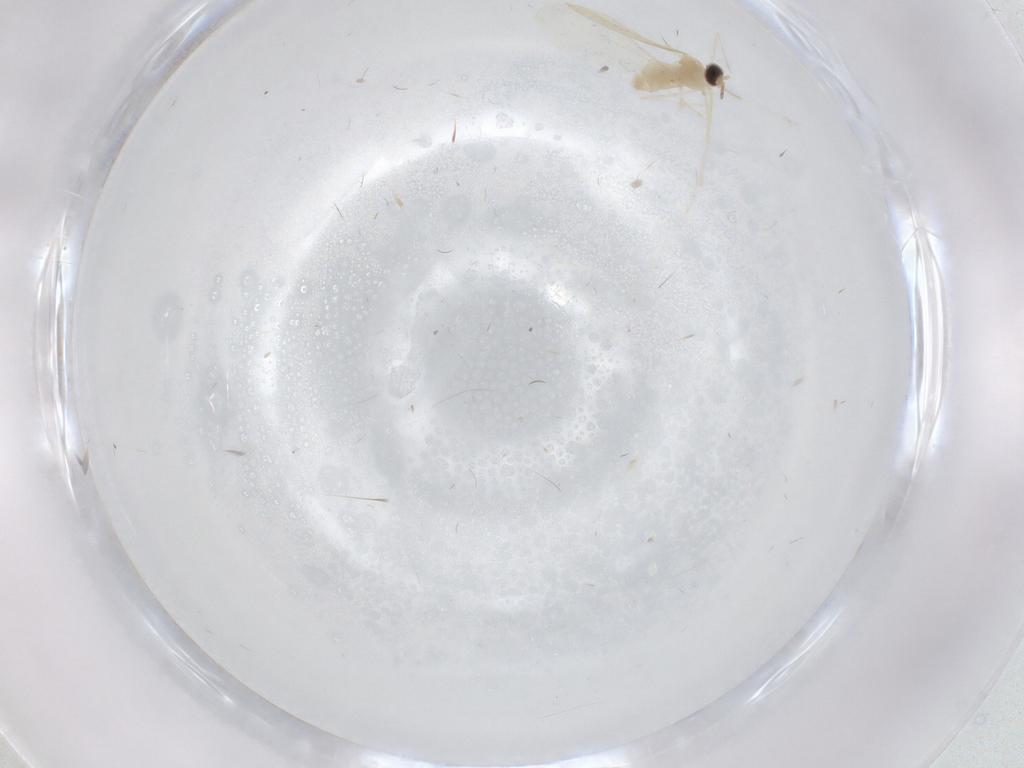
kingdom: Animalia
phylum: Arthropoda
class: Insecta
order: Diptera
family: Cecidomyiidae
